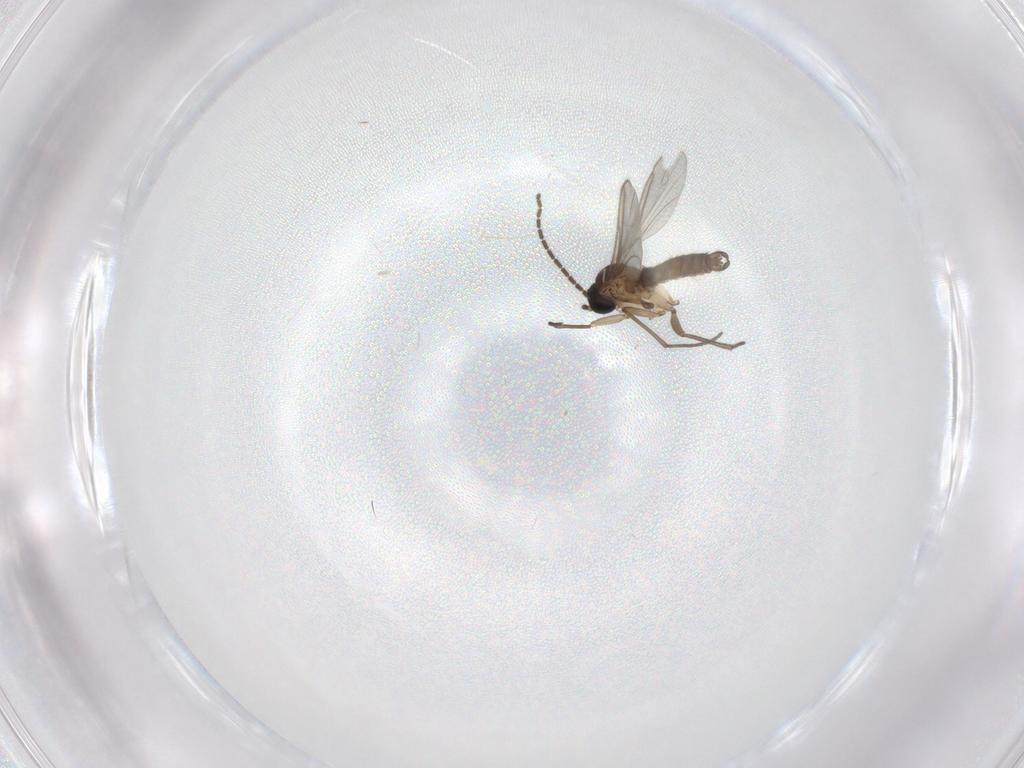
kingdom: Animalia
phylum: Arthropoda
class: Insecta
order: Diptera
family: Sciaridae
